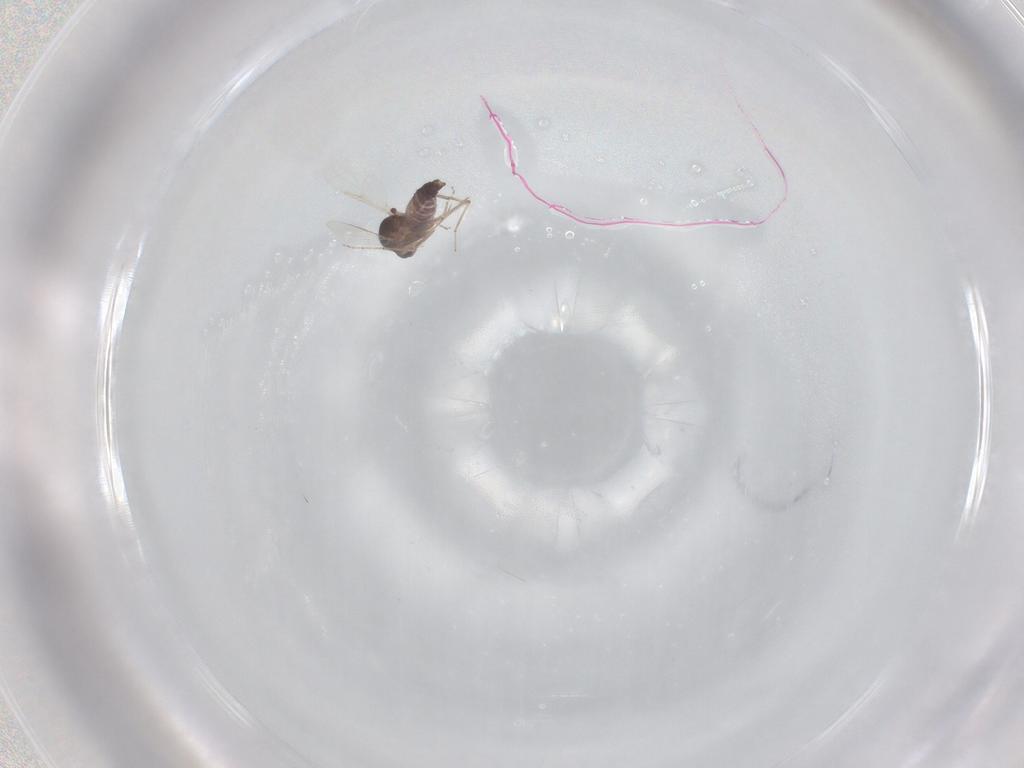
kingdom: Animalia
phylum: Arthropoda
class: Insecta
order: Diptera
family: Ceratopogonidae
